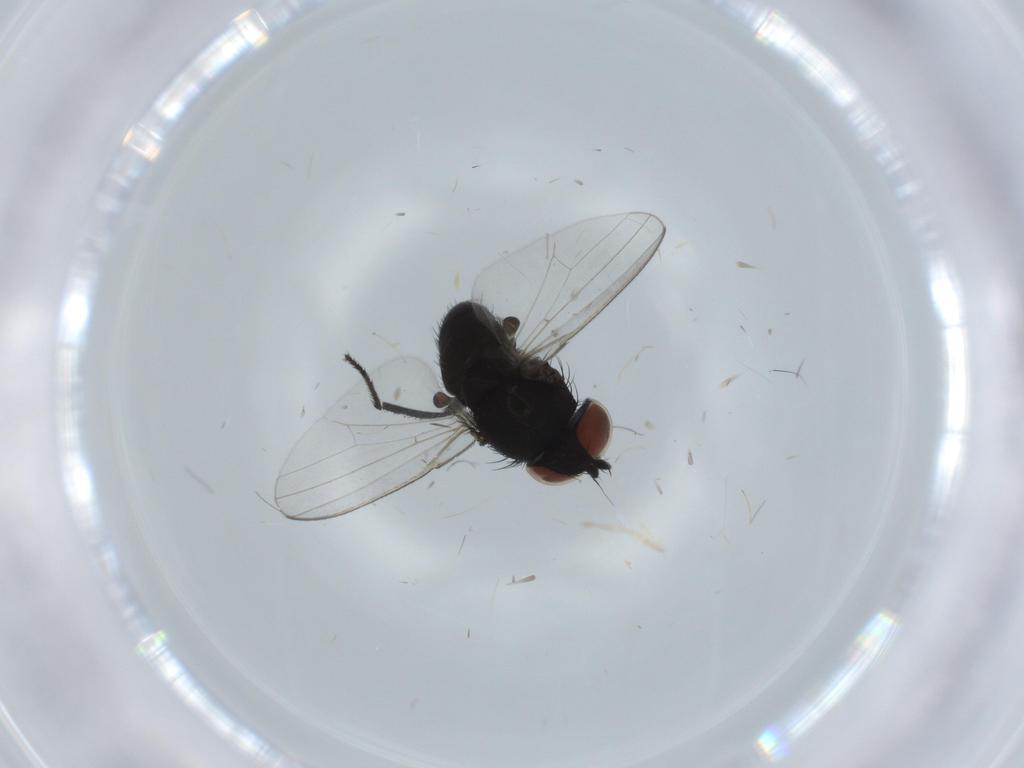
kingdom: Animalia
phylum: Arthropoda
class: Insecta
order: Diptera
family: Milichiidae
